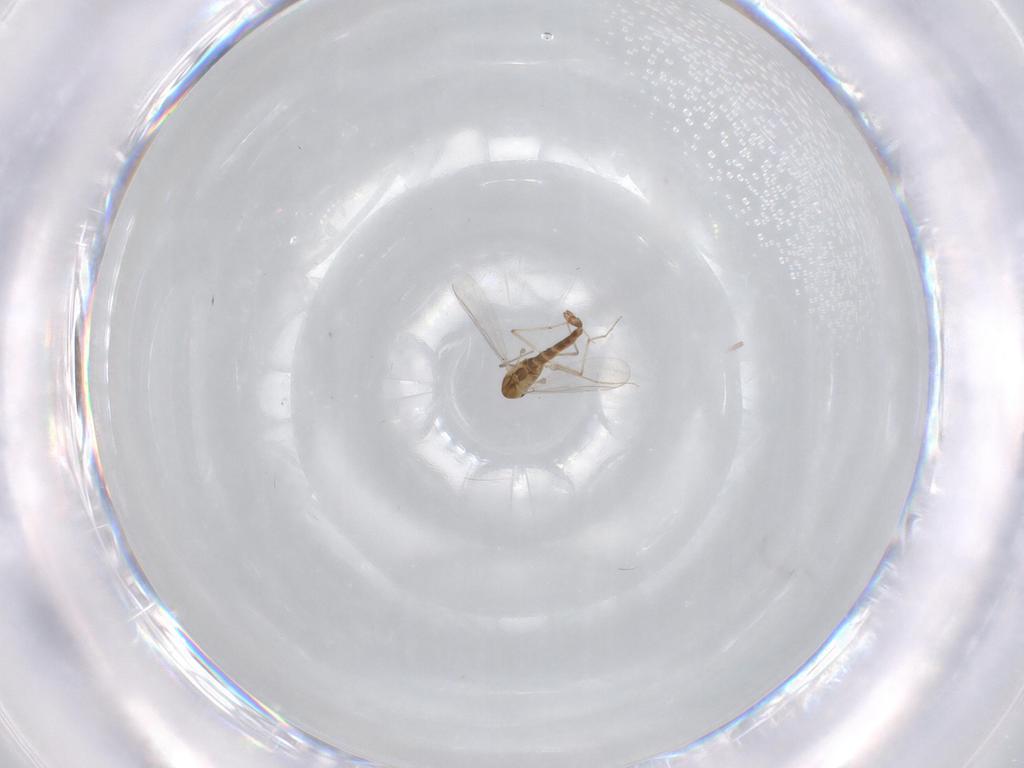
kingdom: Animalia
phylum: Arthropoda
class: Insecta
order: Diptera
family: Chironomidae
